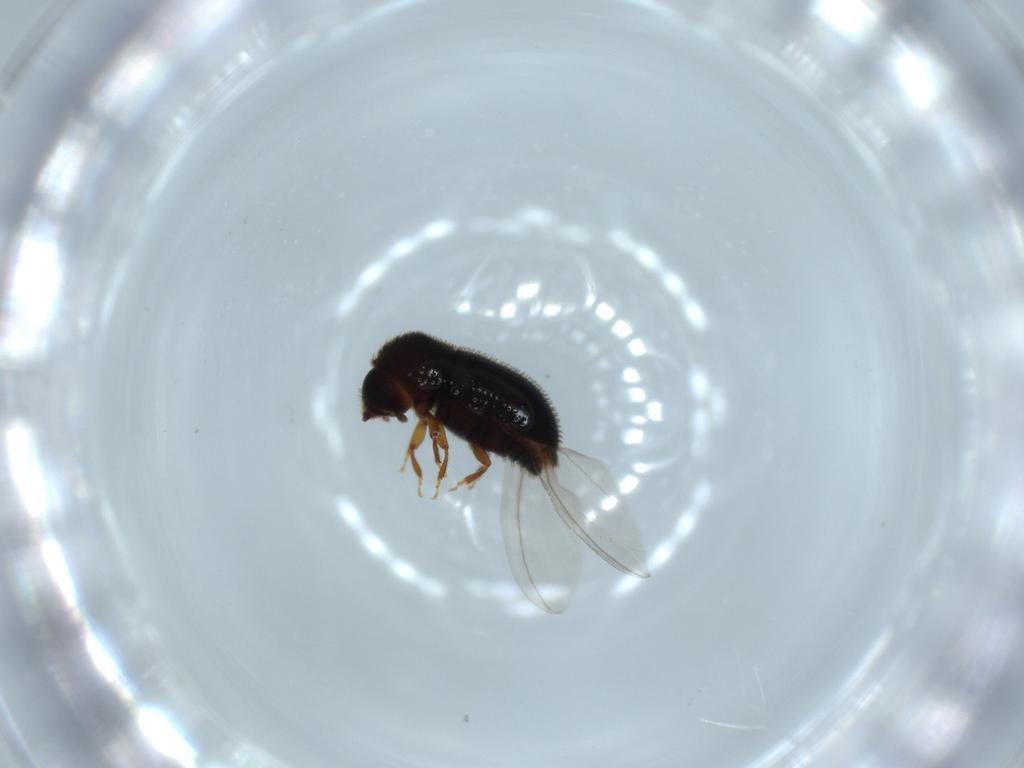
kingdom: Animalia
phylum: Arthropoda
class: Insecta
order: Coleoptera
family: Curculionidae
